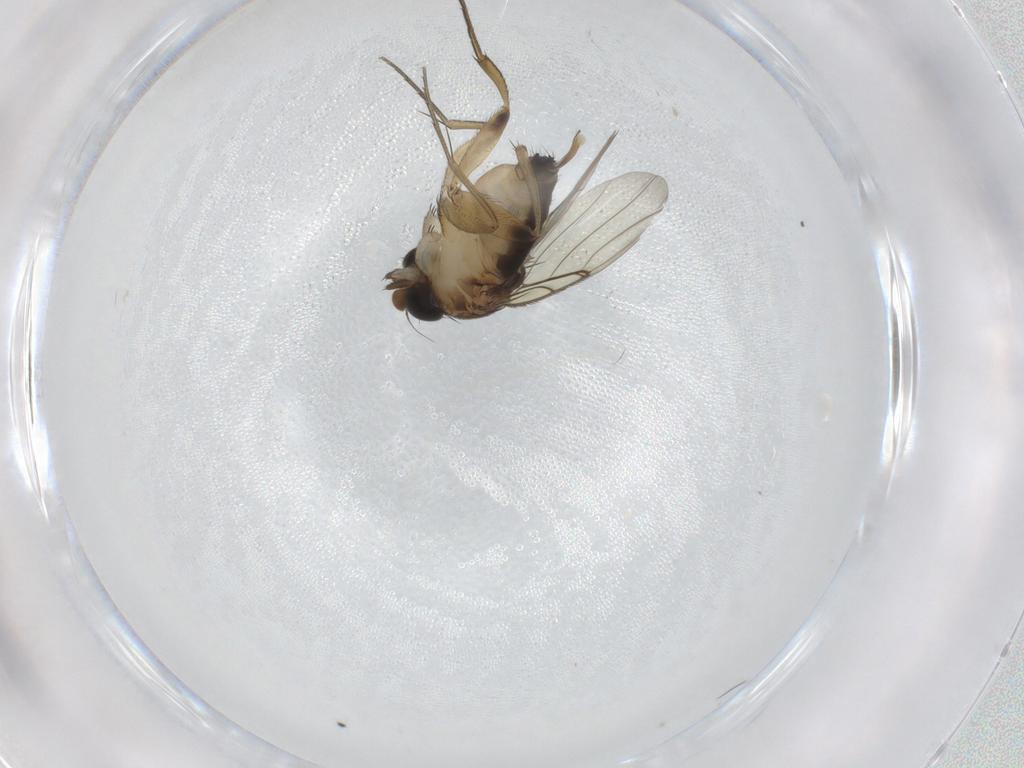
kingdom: Animalia
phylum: Arthropoda
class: Insecta
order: Diptera
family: Phoridae
